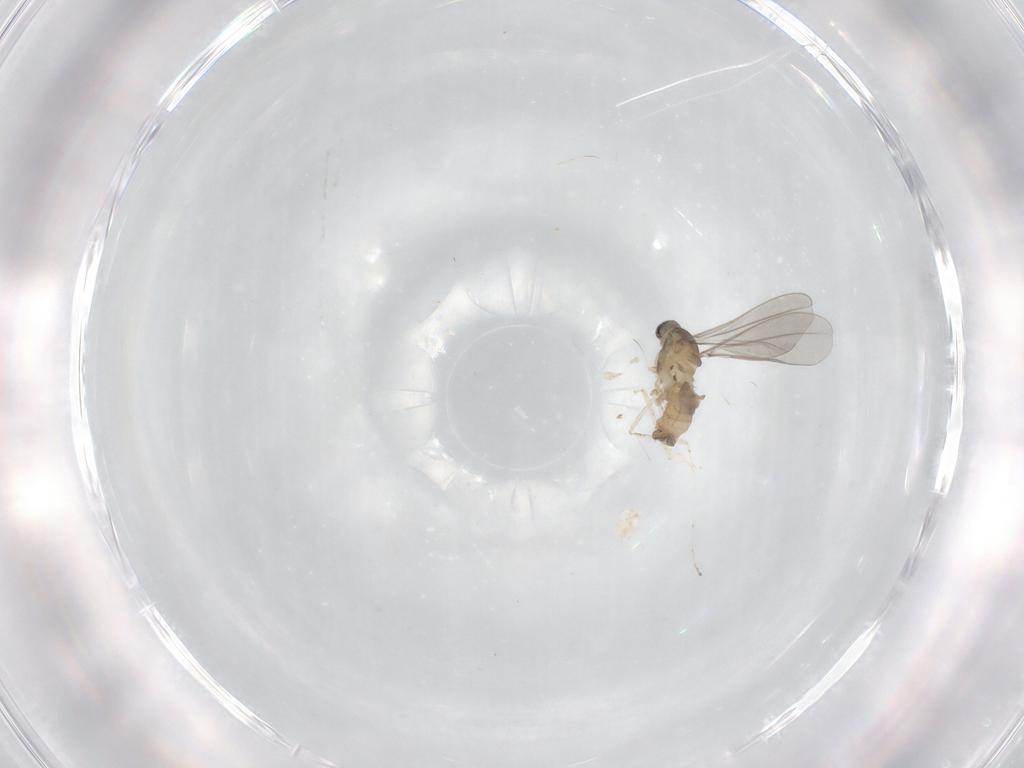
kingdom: Animalia
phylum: Arthropoda
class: Insecta
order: Diptera
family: Cecidomyiidae
